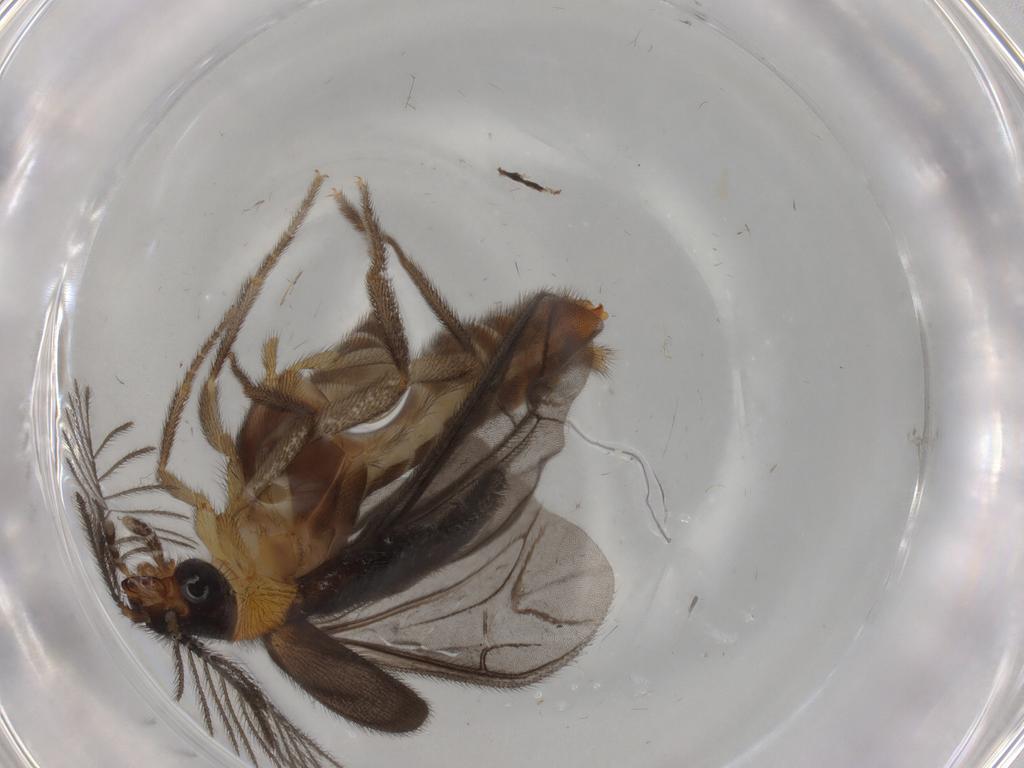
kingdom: Animalia
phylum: Arthropoda
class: Insecta
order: Coleoptera
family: Phengodidae
